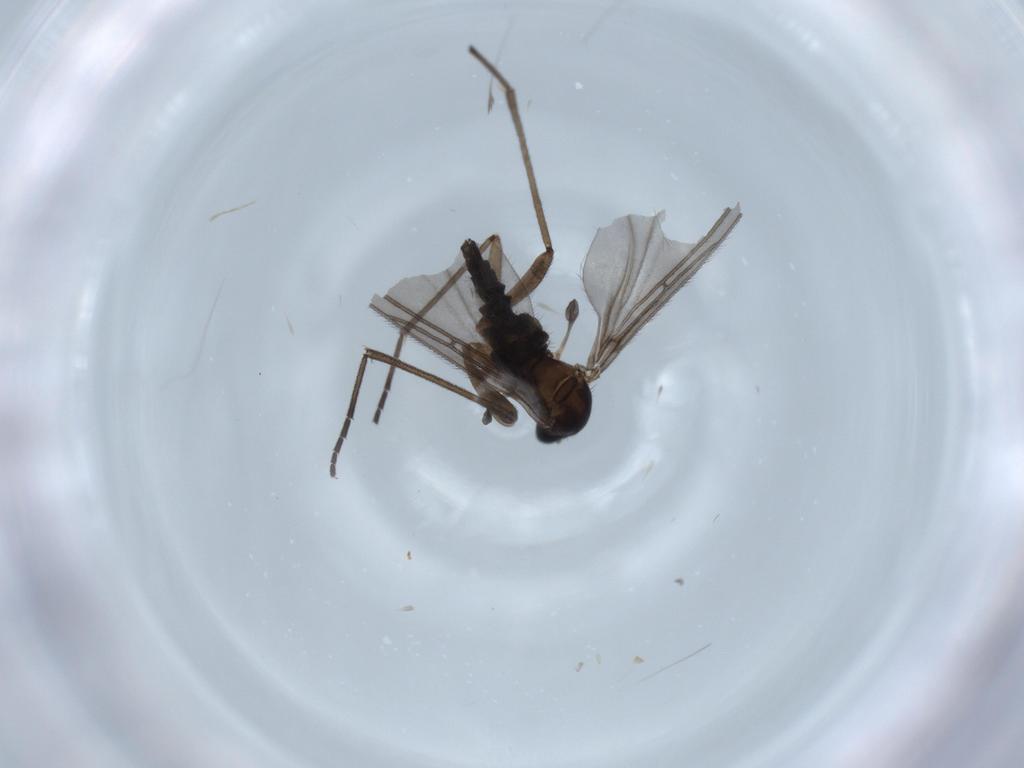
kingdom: Animalia
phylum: Arthropoda
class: Insecta
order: Diptera
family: Sciaridae
